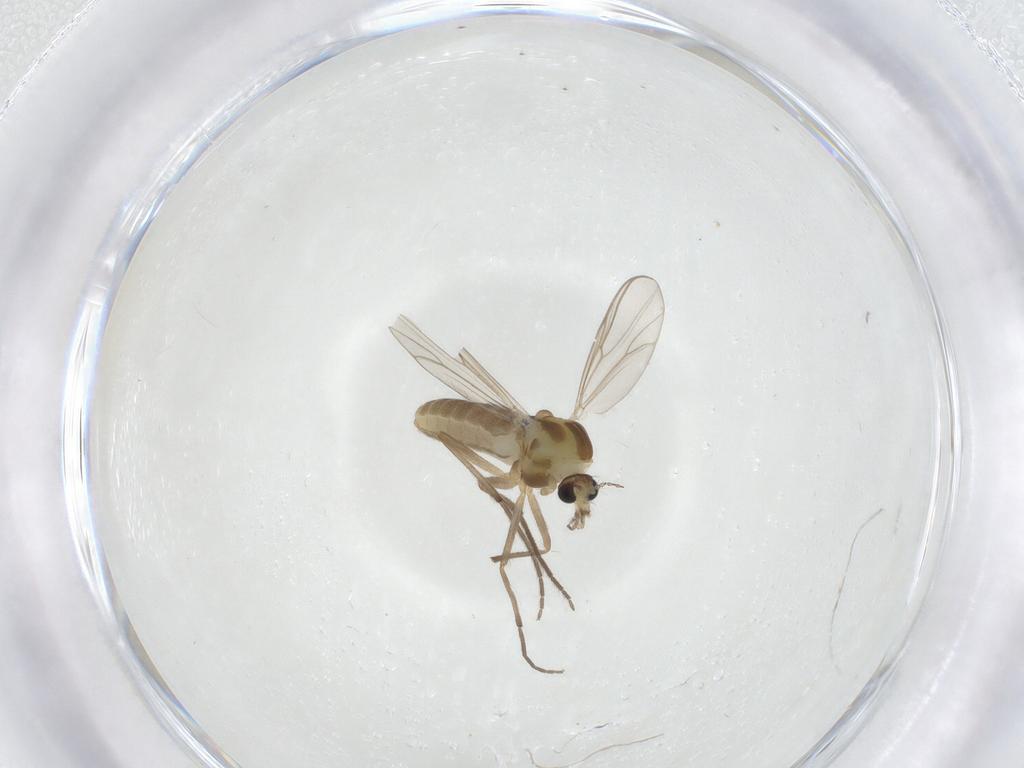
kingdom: Animalia
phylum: Arthropoda
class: Insecta
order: Diptera
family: Chironomidae
